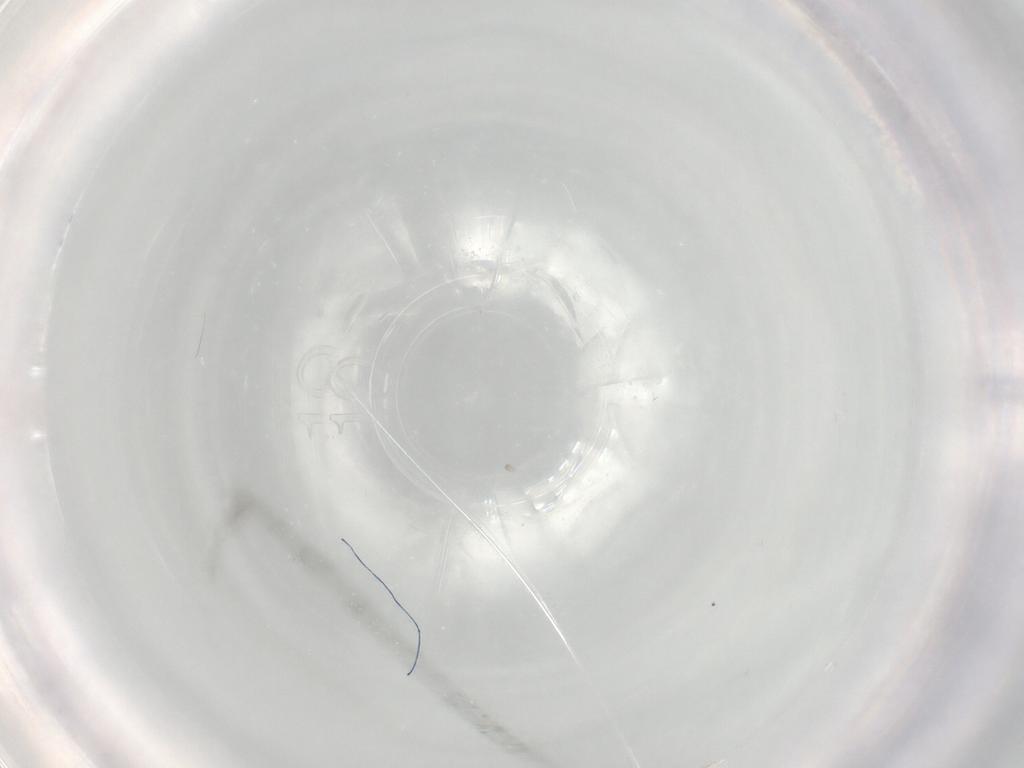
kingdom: Animalia
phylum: Arthropoda
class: Collembola
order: Entomobryomorpha
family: Entomobryidae
